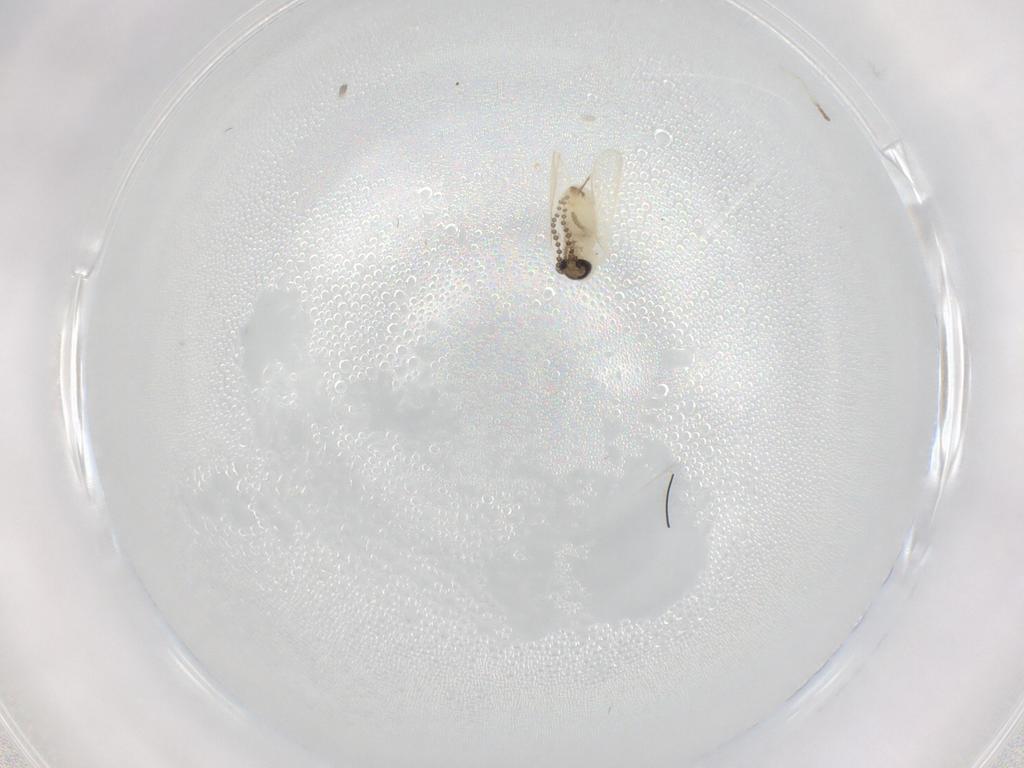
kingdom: Animalia
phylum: Arthropoda
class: Insecta
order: Diptera
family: Psychodidae
